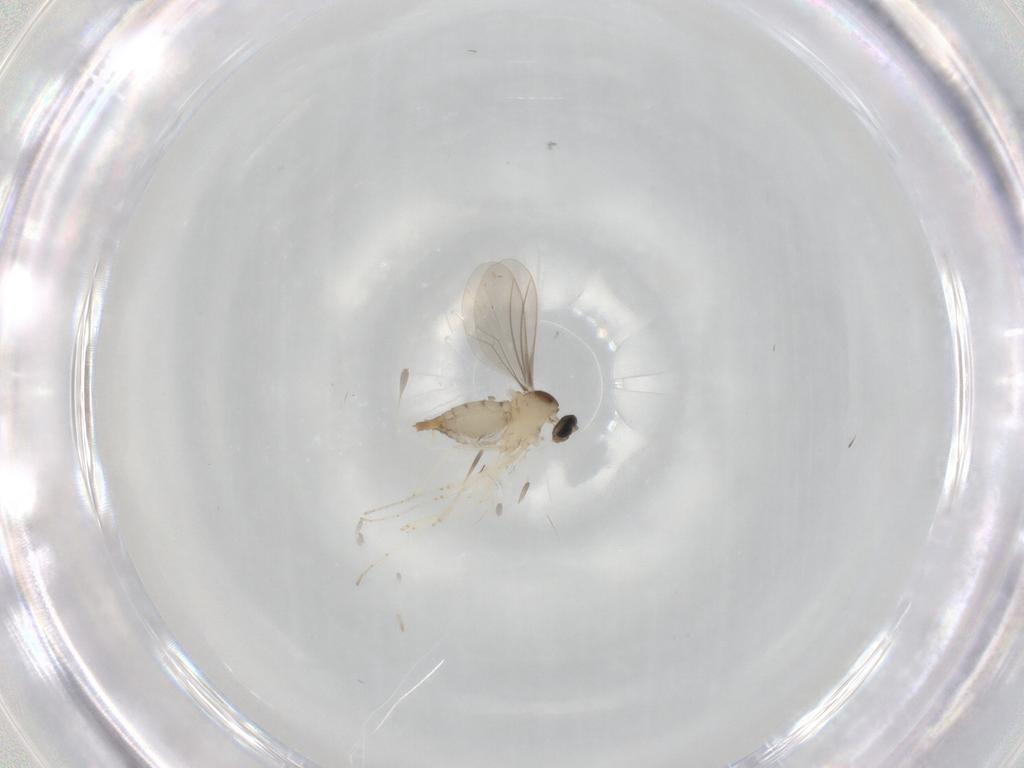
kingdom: Animalia
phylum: Arthropoda
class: Insecta
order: Diptera
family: Cecidomyiidae
